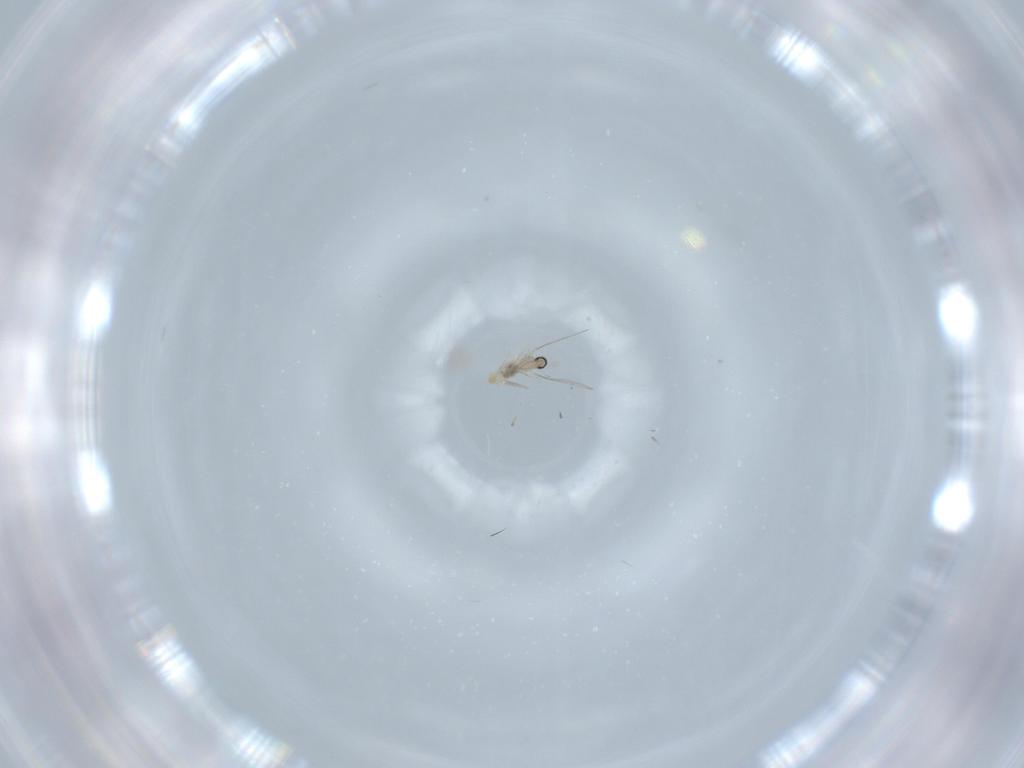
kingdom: Animalia
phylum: Arthropoda
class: Insecta
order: Diptera
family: Chironomidae
